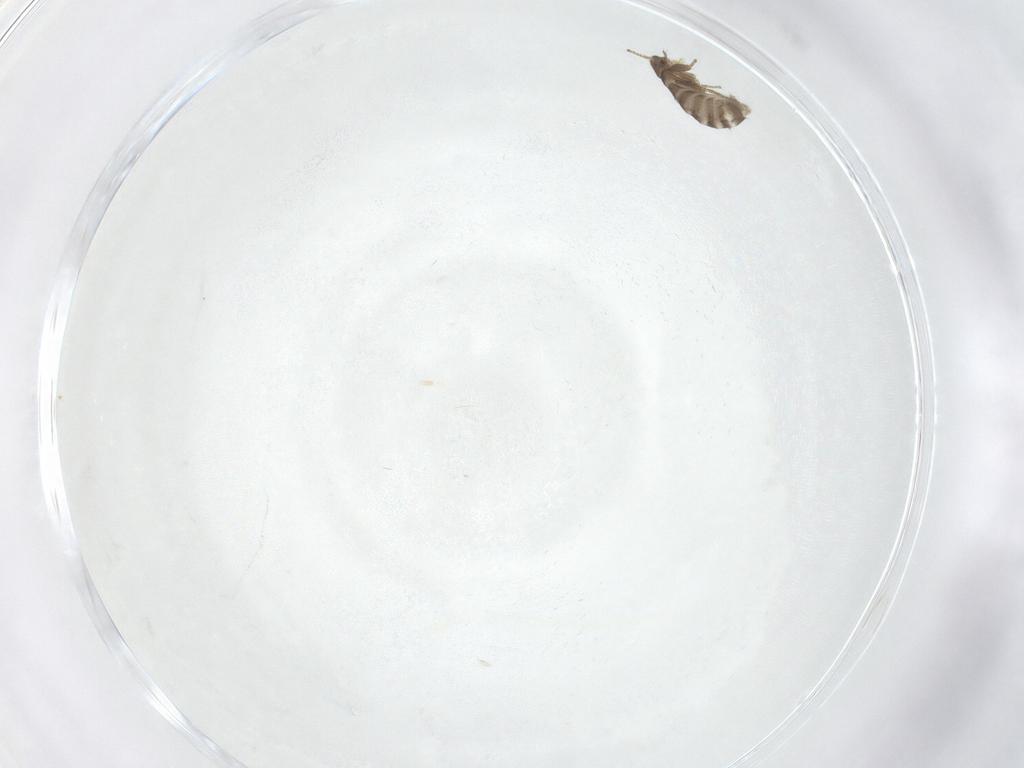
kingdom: Animalia
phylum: Arthropoda
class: Insecta
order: Diptera
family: Phoridae
